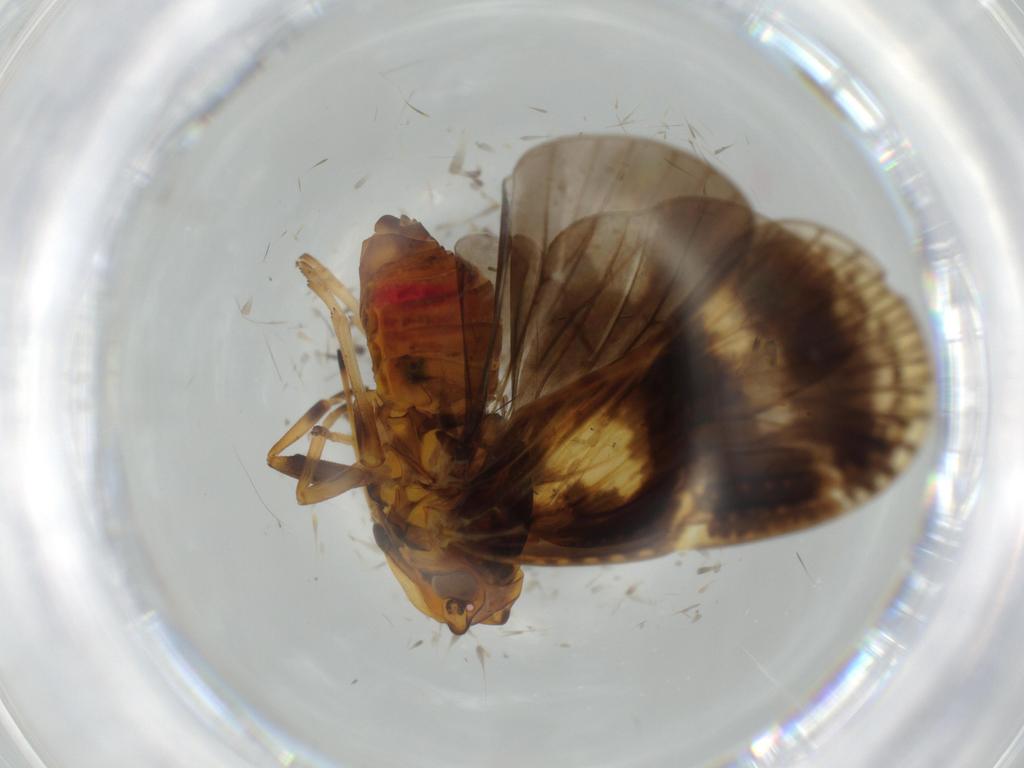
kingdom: Animalia
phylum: Arthropoda
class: Insecta
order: Hemiptera
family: Cixiidae
